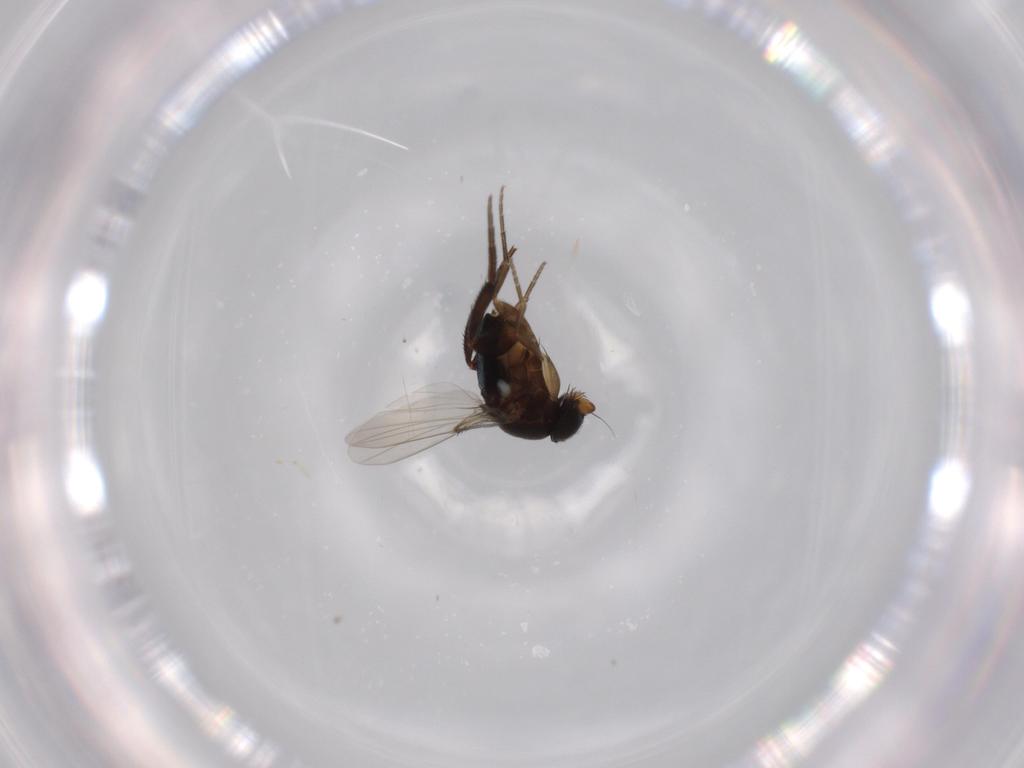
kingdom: Animalia
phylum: Arthropoda
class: Insecta
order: Diptera
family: Phoridae
